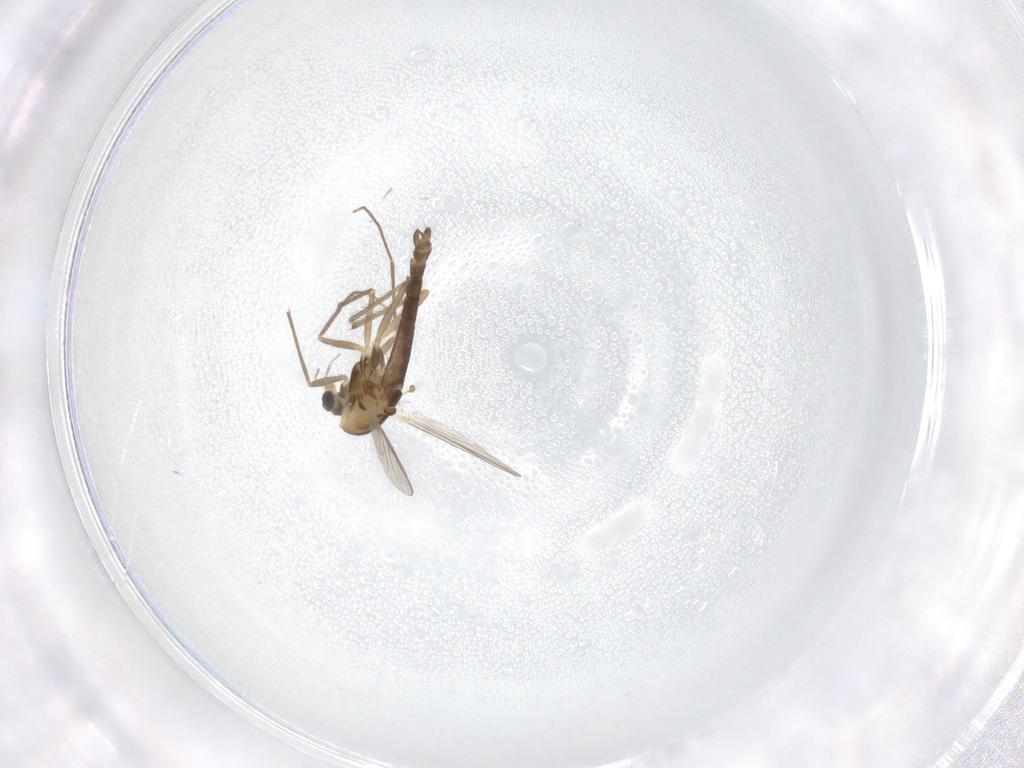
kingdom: Animalia
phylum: Arthropoda
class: Insecta
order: Diptera
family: Chironomidae
